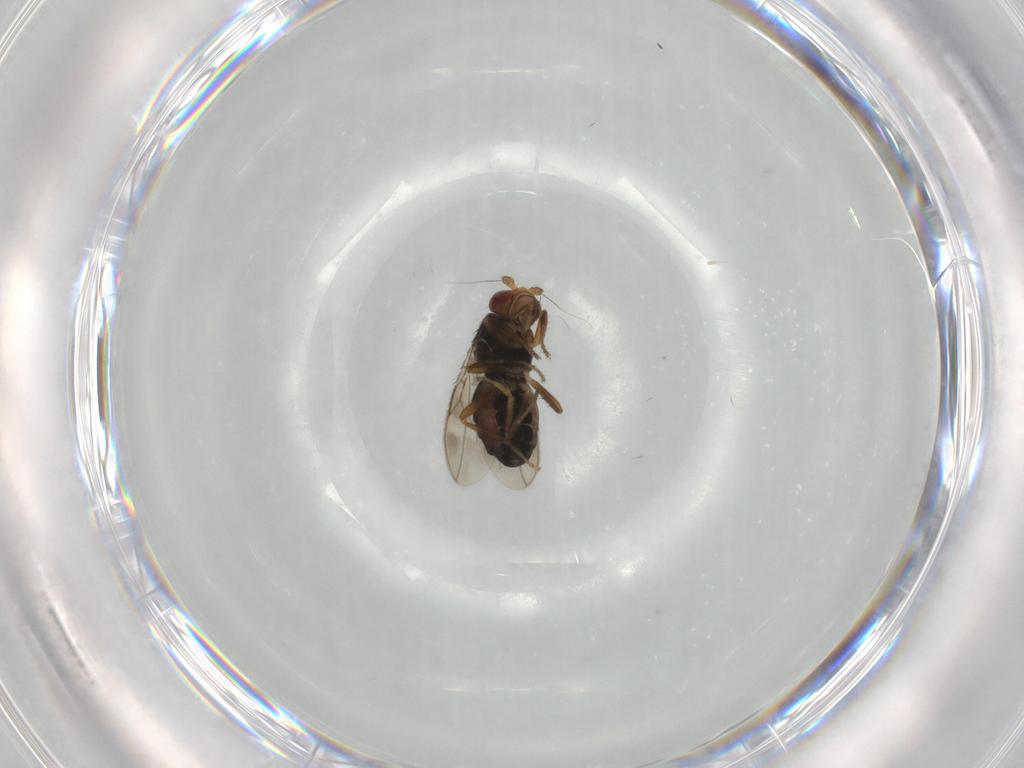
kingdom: Animalia
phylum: Arthropoda
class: Insecta
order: Diptera
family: Sphaeroceridae
